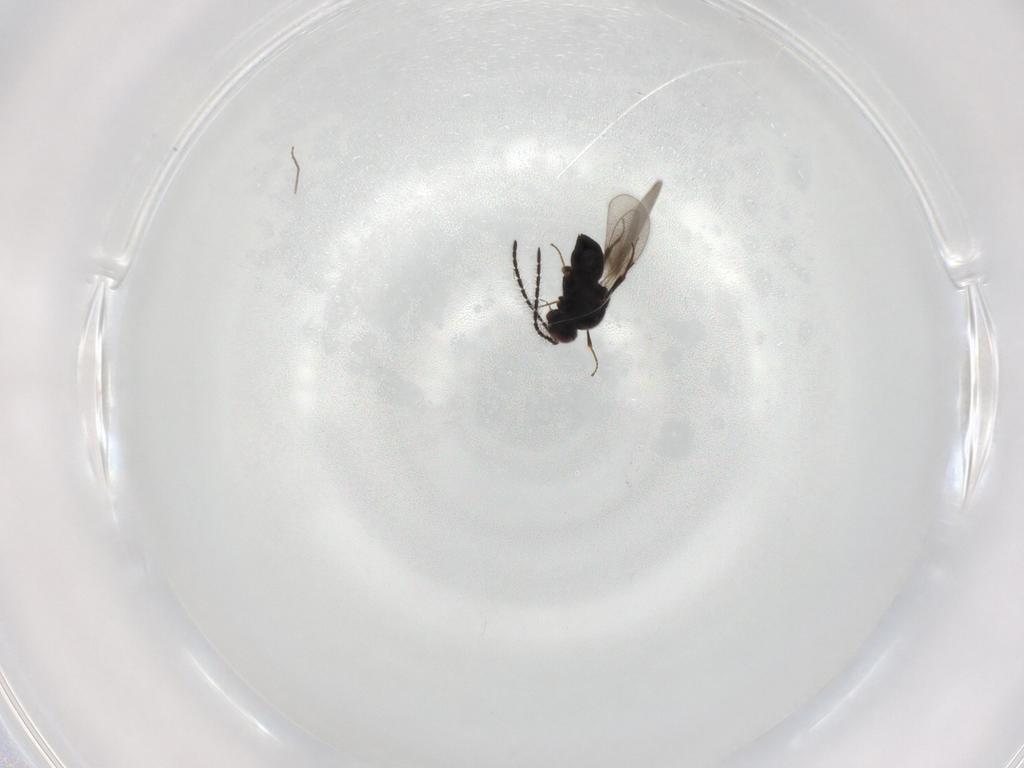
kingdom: Animalia
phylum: Arthropoda
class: Insecta
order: Hymenoptera
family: Ceraphronidae
